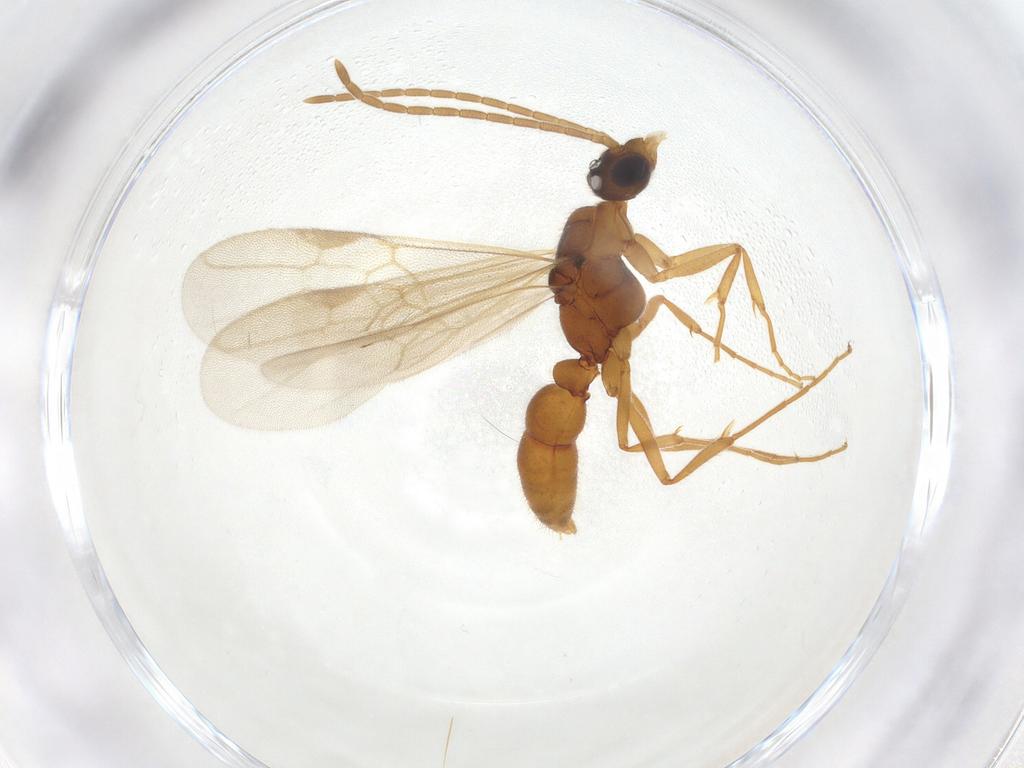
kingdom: Animalia
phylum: Arthropoda
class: Insecta
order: Hymenoptera
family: Formicidae
